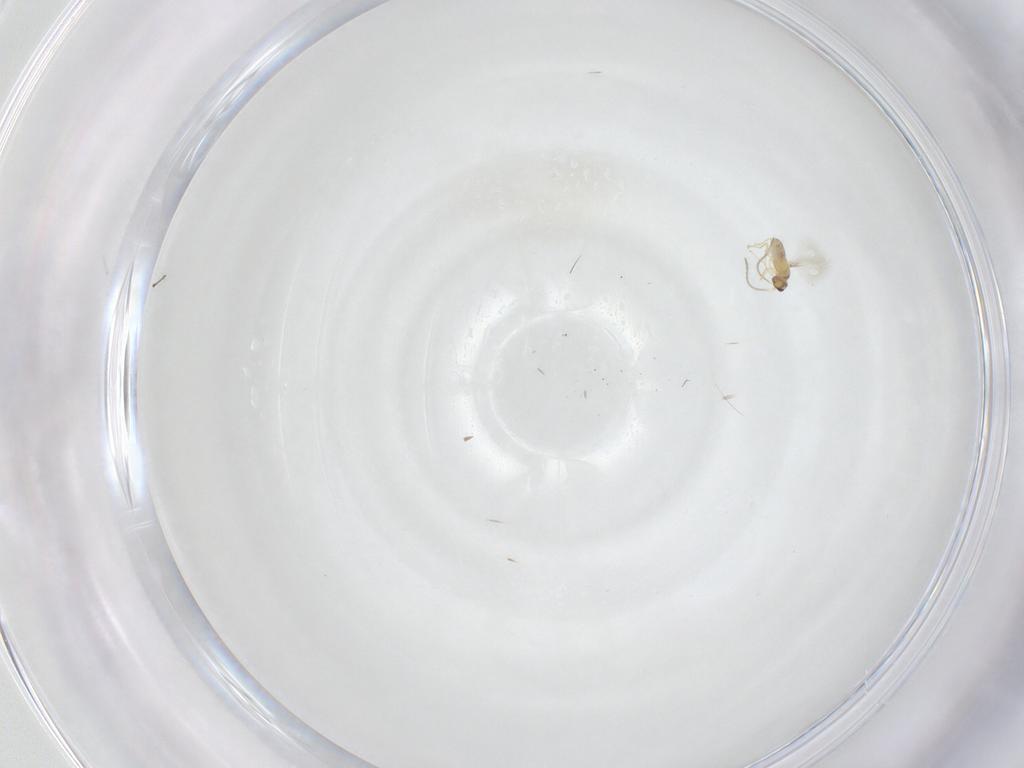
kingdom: Animalia
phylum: Arthropoda
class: Insecta
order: Hymenoptera
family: Mymaridae
